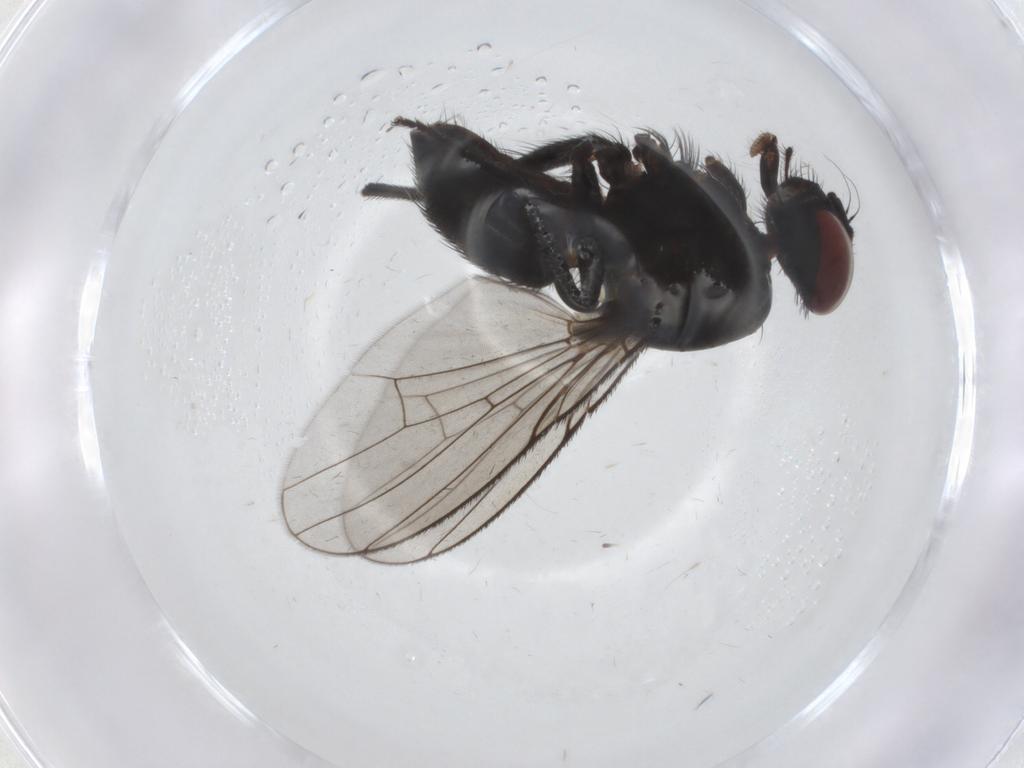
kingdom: Animalia
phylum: Arthropoda
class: Insecta
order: Diptera
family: Muscidae
